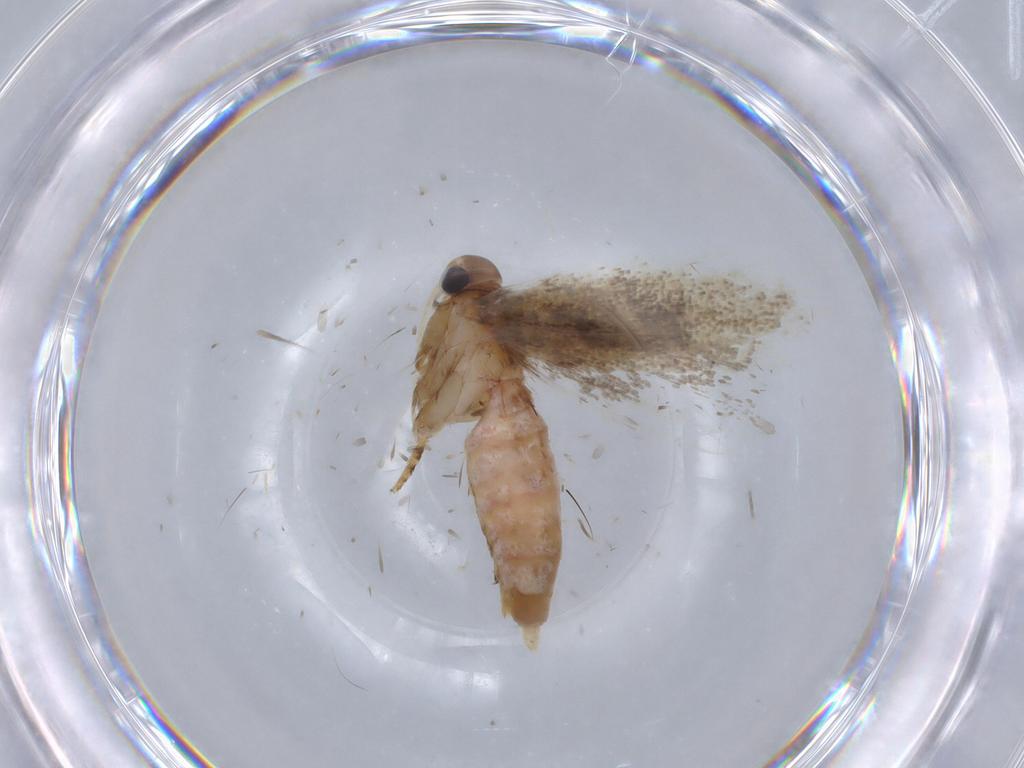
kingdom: Animalia
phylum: Arthropoda
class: Insecta
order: Lepidoptera
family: Gelechiidae
